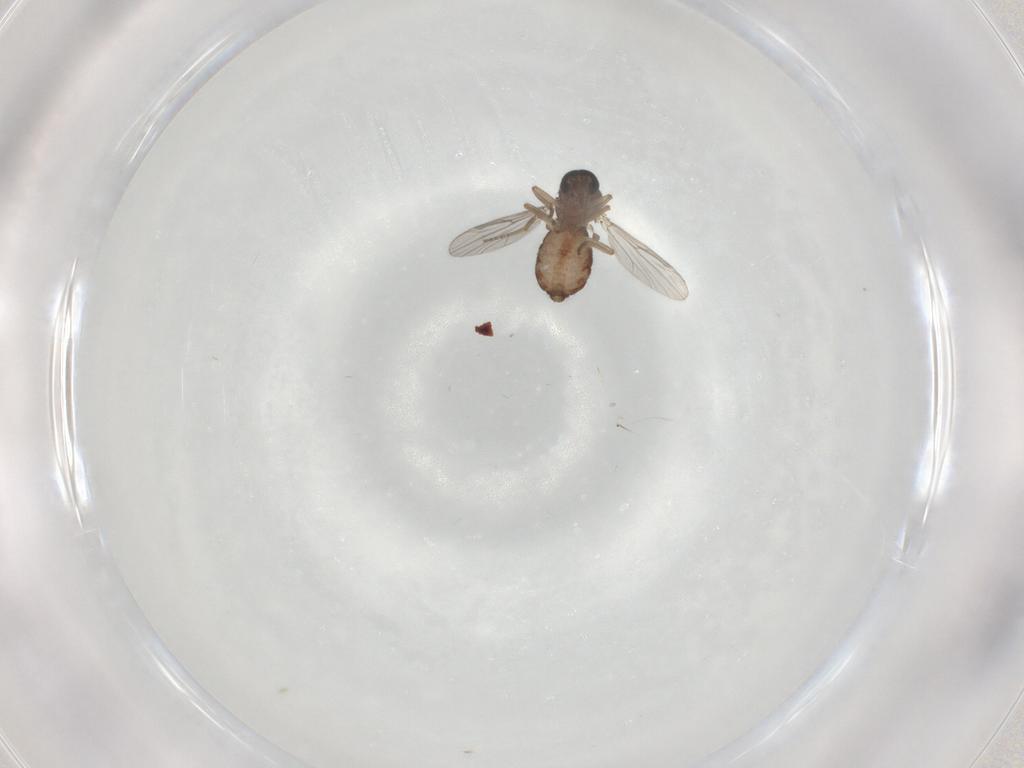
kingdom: Animalia
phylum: Arthropoda
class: Insecta
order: Diptera
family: Ceratopogonidae
